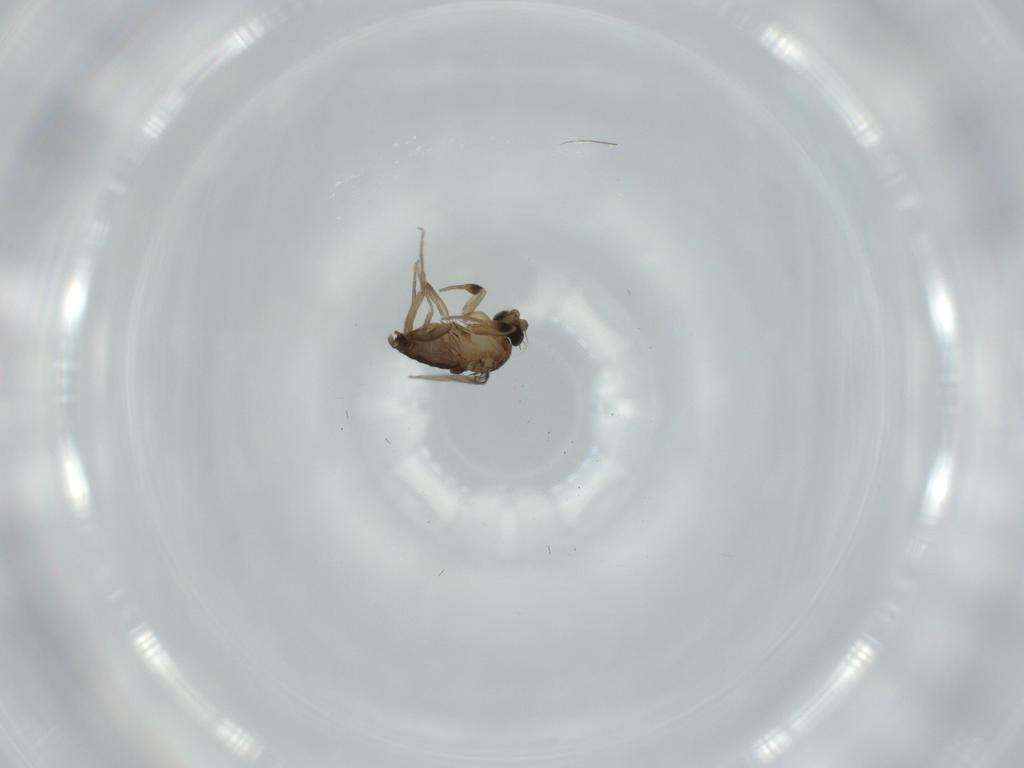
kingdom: Animalia
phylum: Arthropoda
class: Insecta
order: Diptera
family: Phoridae
